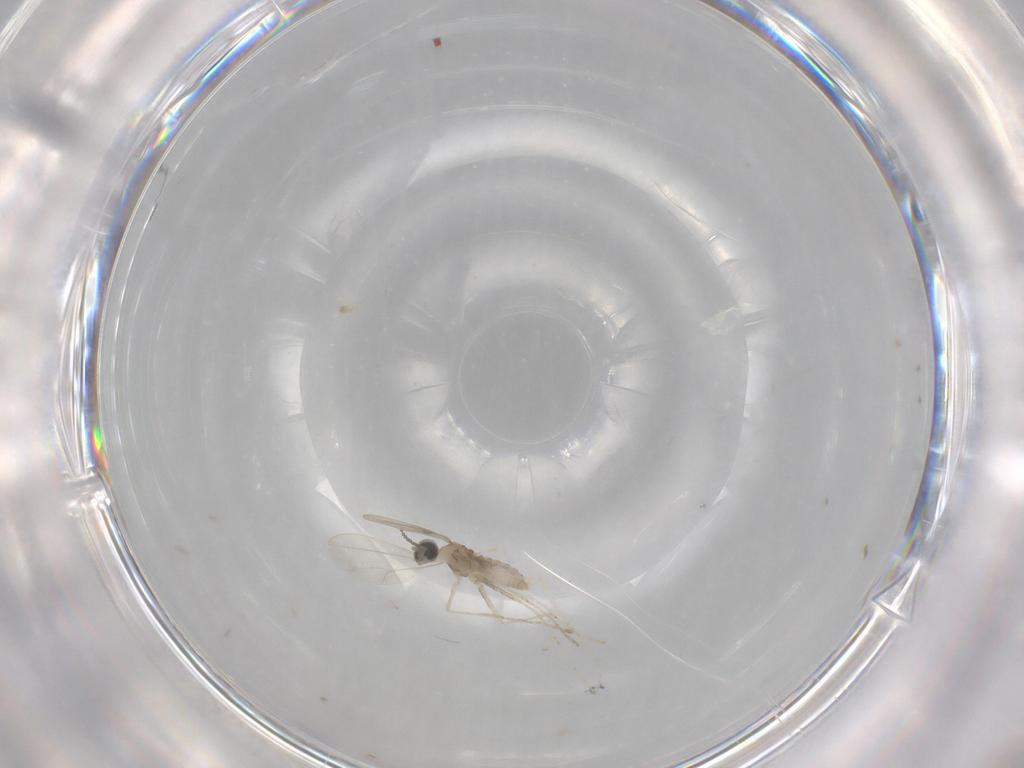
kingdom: Animalia
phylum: Arthropoda
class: Insecta
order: Diptera
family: Cecidomyiidae
